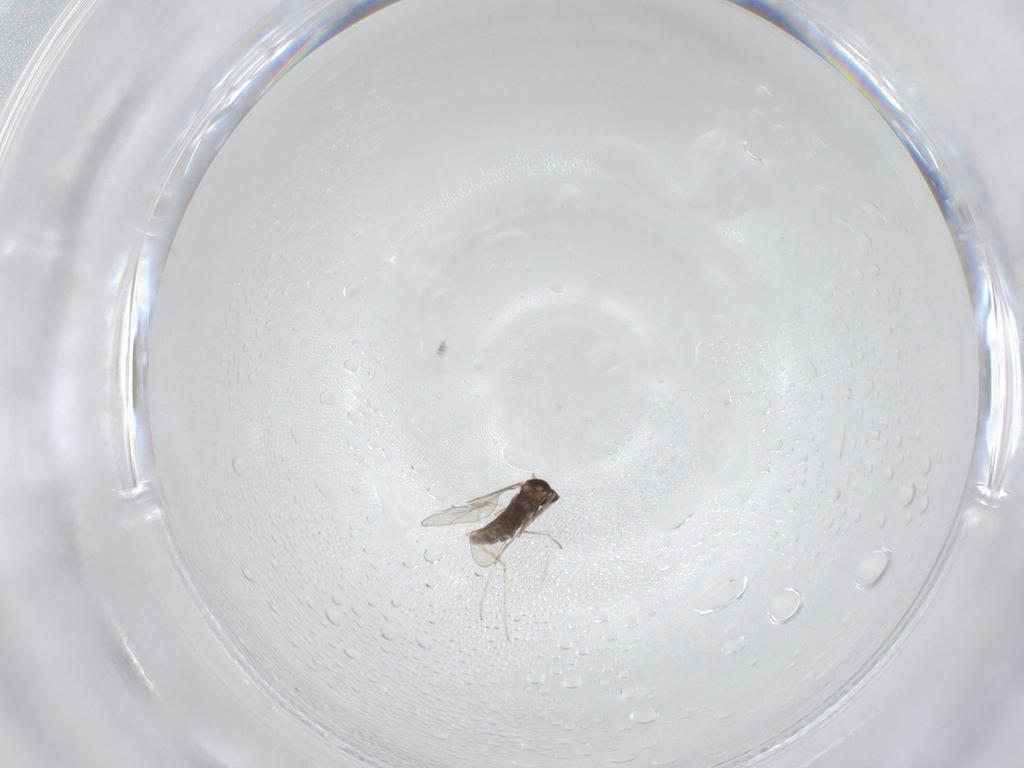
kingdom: Animalia
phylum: Arthropoda
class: Insecta
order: Diptera
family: Cecidomyiidae
